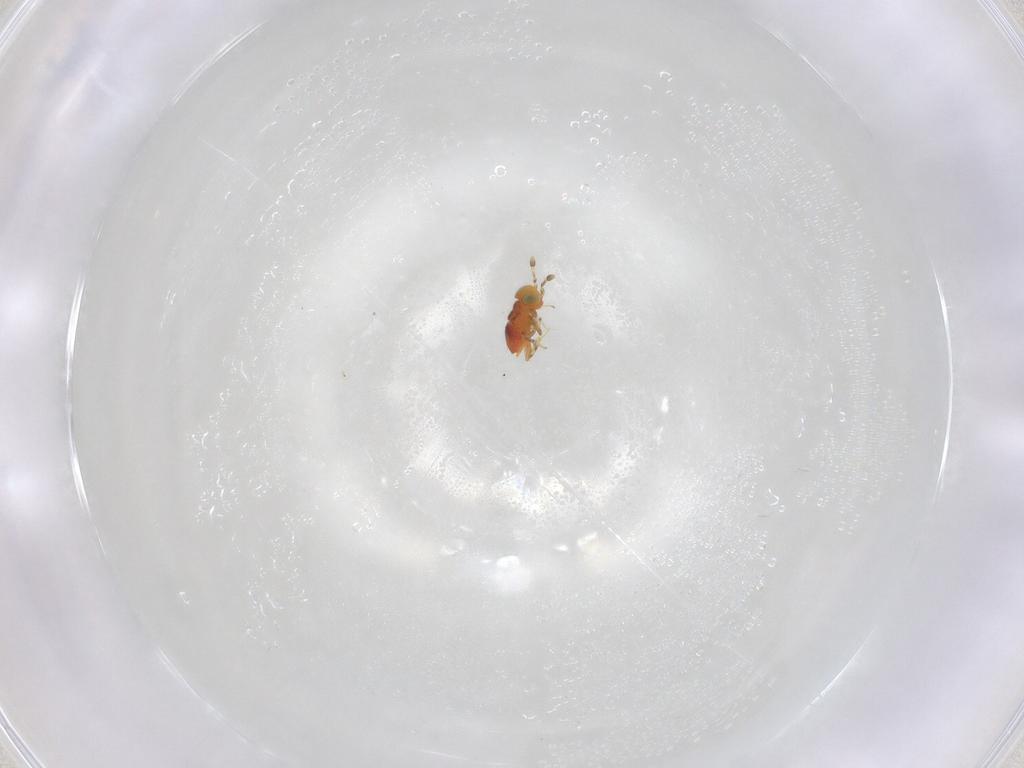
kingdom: Animalia
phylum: Arthropoda
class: Insecta
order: Hymenoptera
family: Scelionidae
